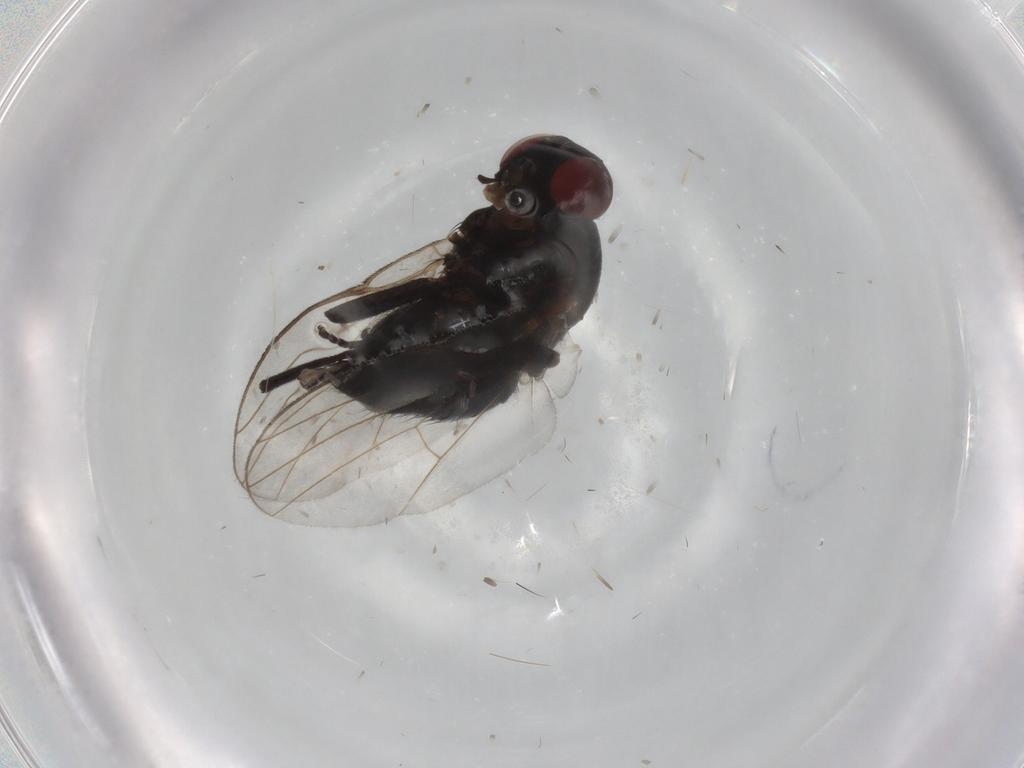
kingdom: Animalia
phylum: Arthropoda
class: Insecta
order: Diptera
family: Agromyzidae
